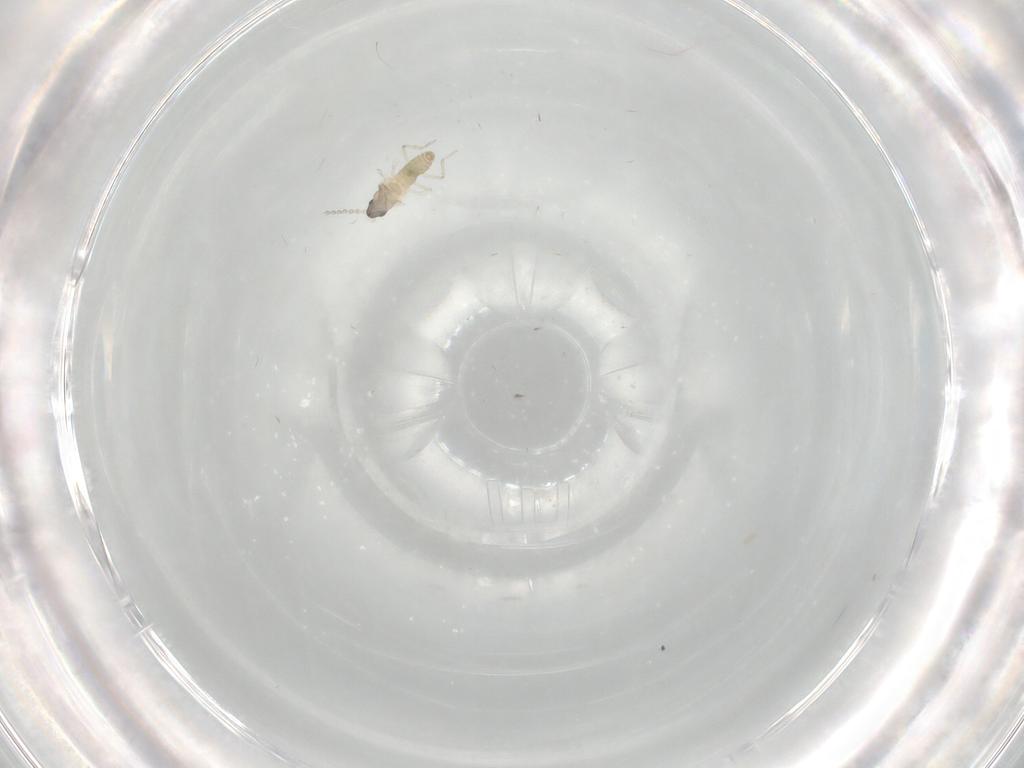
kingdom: Animalia
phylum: Arthropoda
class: Insecta
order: Diptera
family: Cecidomyiidae
